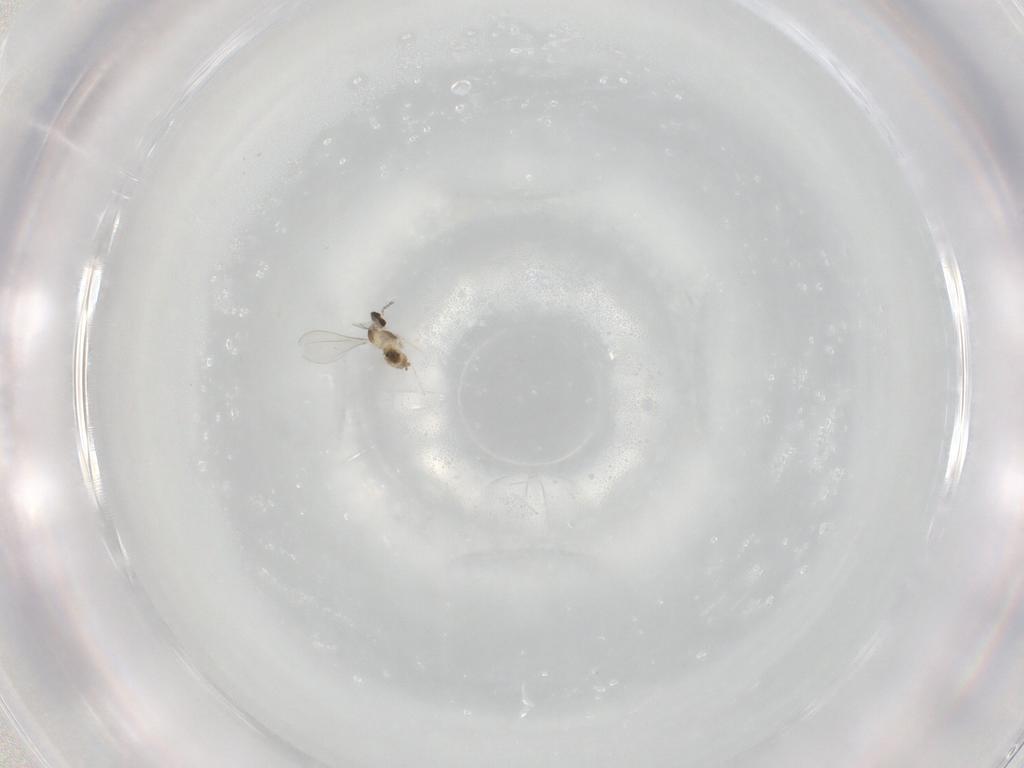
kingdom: Animalia
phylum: Arthropoda
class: Insecta
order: Diptera
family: Cecidomyiidae
